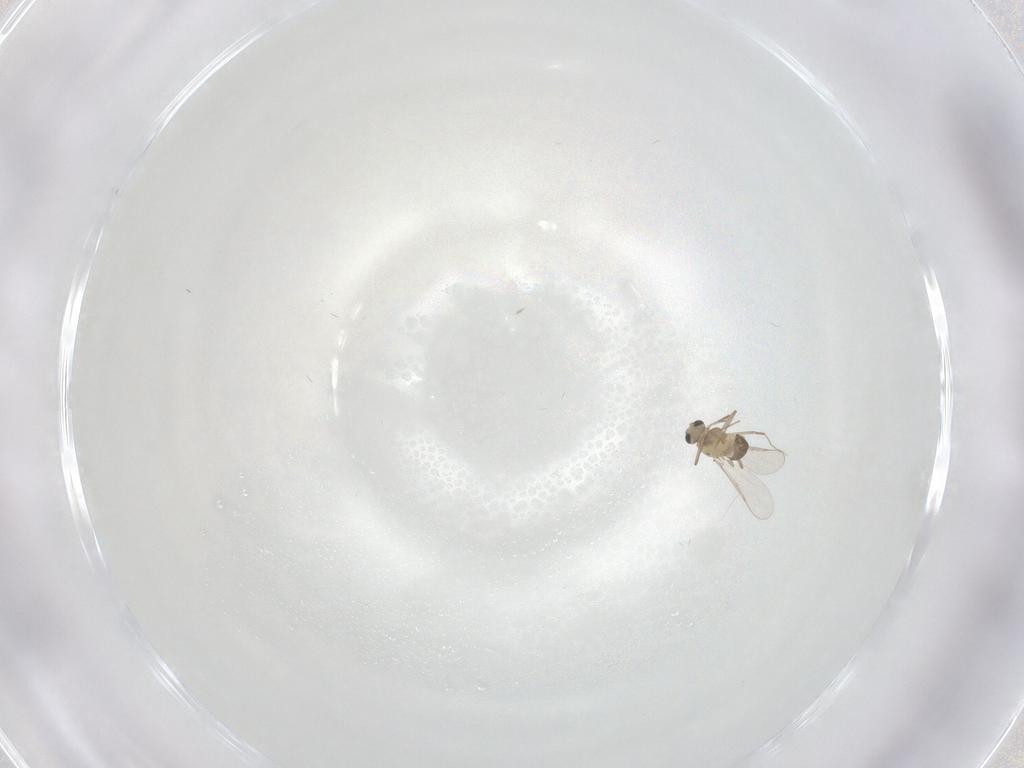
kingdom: Animalia
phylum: Arthropoda
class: Insecta
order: Diptera
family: Chironomidae
